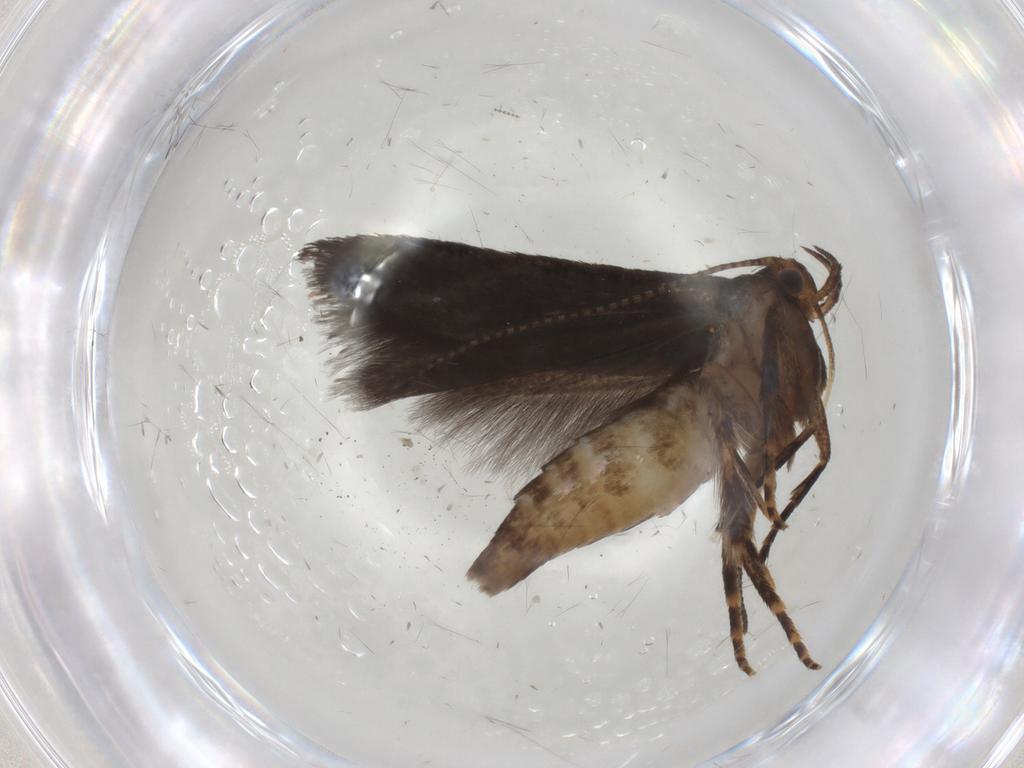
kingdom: Animalia
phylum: Arthropoda
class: Insecta
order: Lepidoptera
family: Gelechiidae
